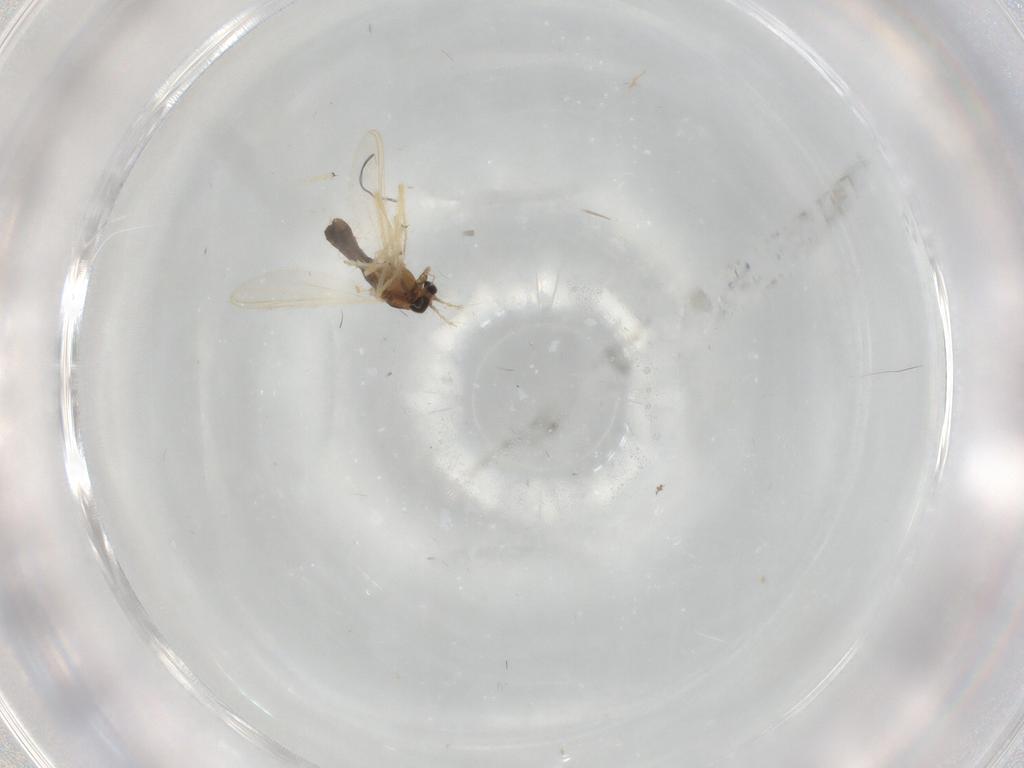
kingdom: Animalia
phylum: Arthropoda
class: Insecta
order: Diptera
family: Chironomidae
